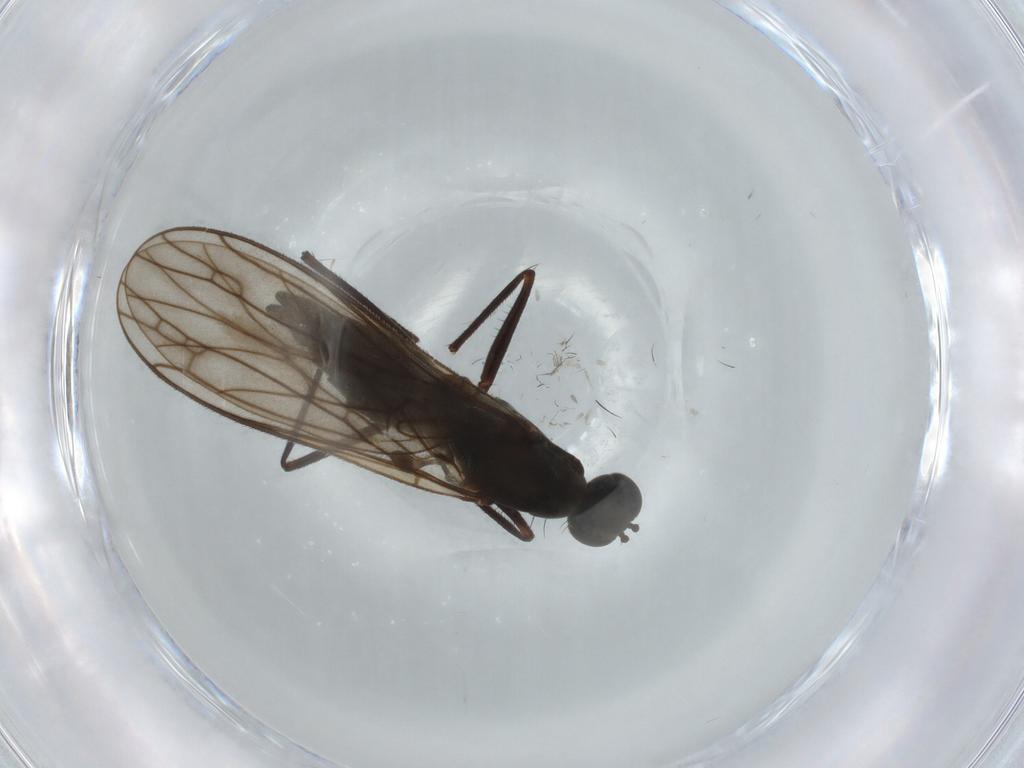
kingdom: Animalia
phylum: Arthropoda
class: Insecta
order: Diptera
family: Empididae
